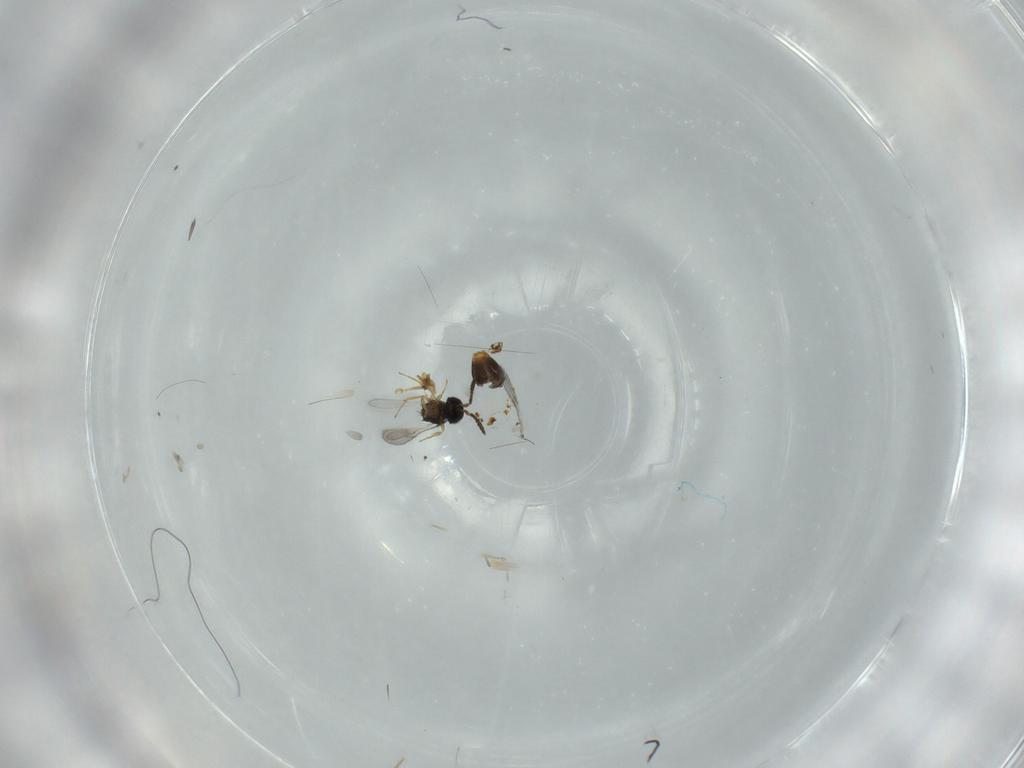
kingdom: Animalia
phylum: Arthropoda
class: Insecta
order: Hymenoptera
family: Scelionidae
